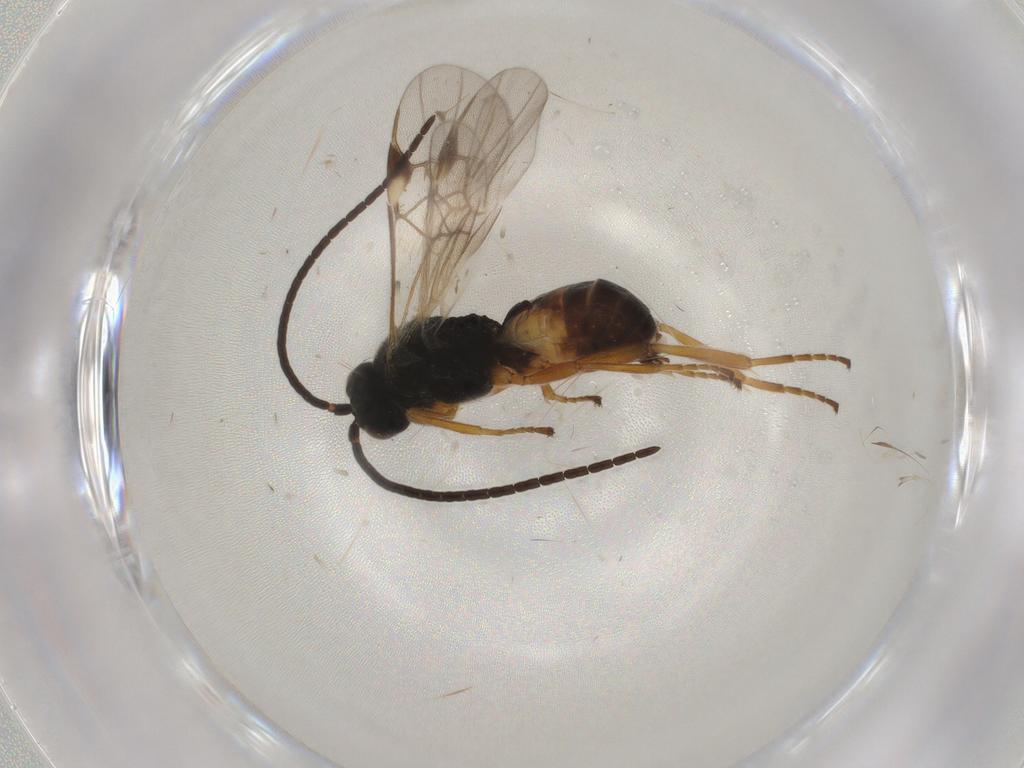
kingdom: Animalia
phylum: Arthropoda
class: Insecta
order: Hymenoptera
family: Braconidae
